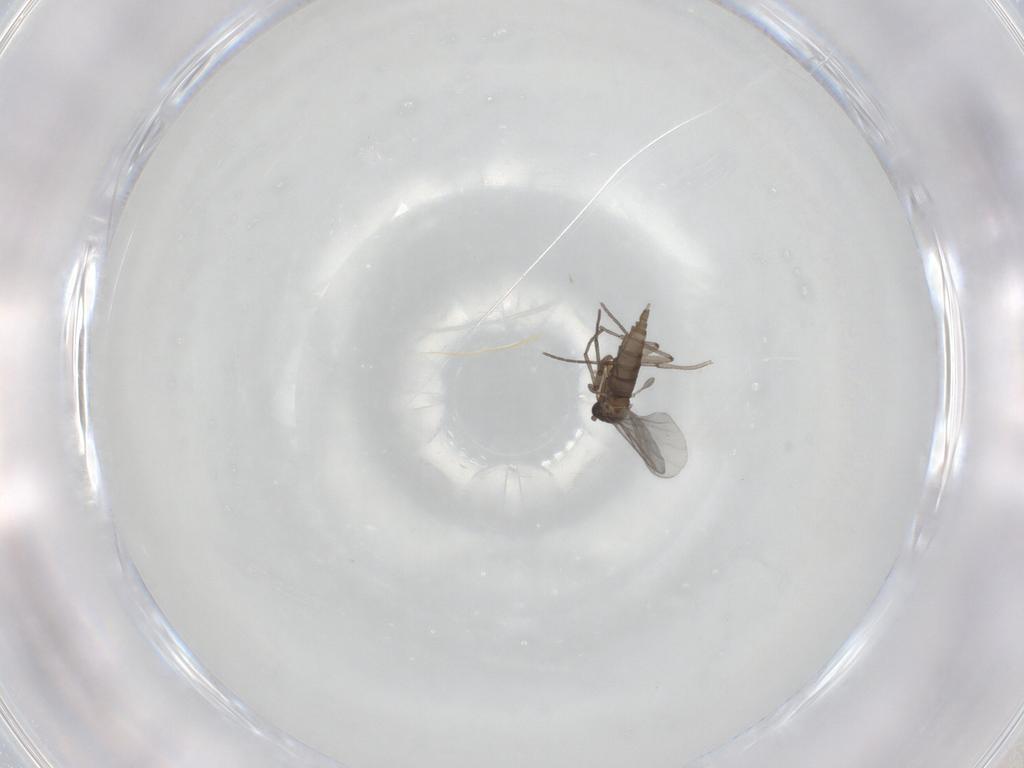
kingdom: Animalia
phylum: Arthropoda
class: Insecta
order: Diptera
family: Sciaridae
